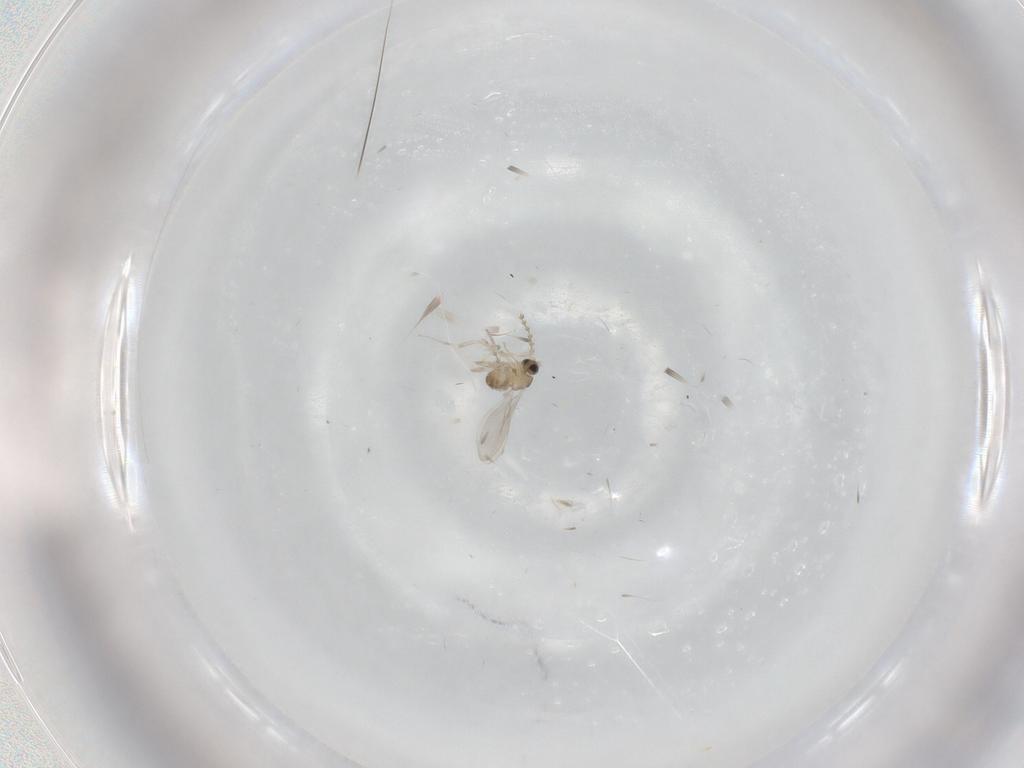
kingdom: Animalia
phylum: Arthropoda
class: Insecta
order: Diptera
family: Cecidomyiidae
